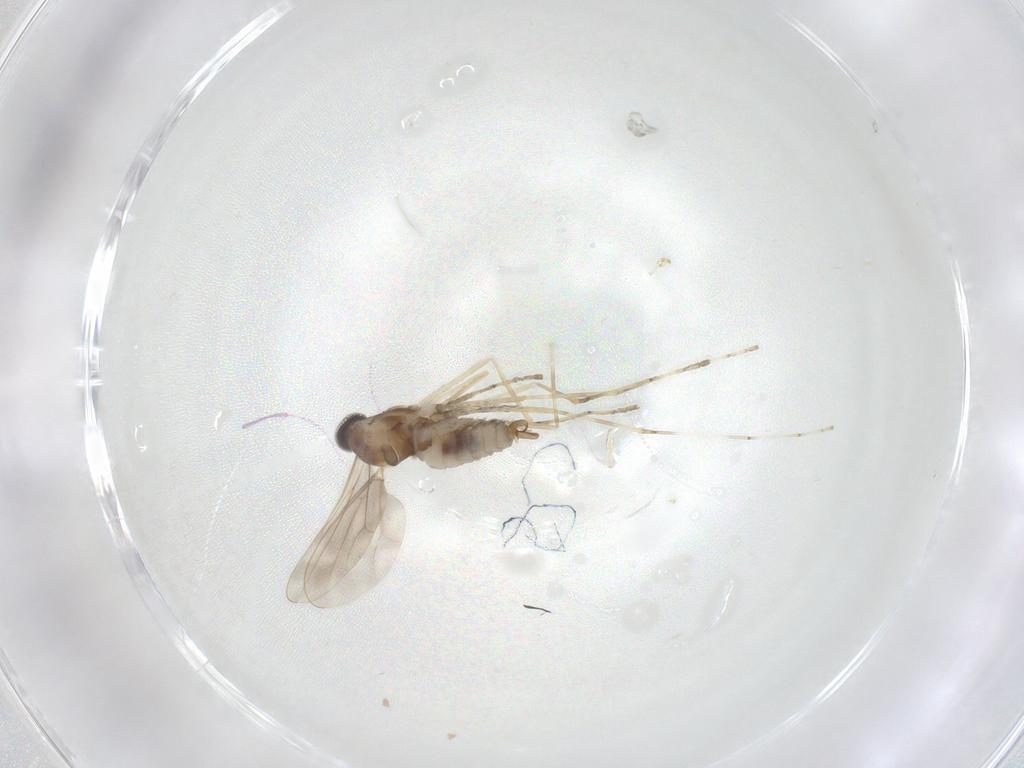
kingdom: Animalia
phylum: Arthropoda
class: Insecta
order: Diptera
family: Cecidomyiidae
